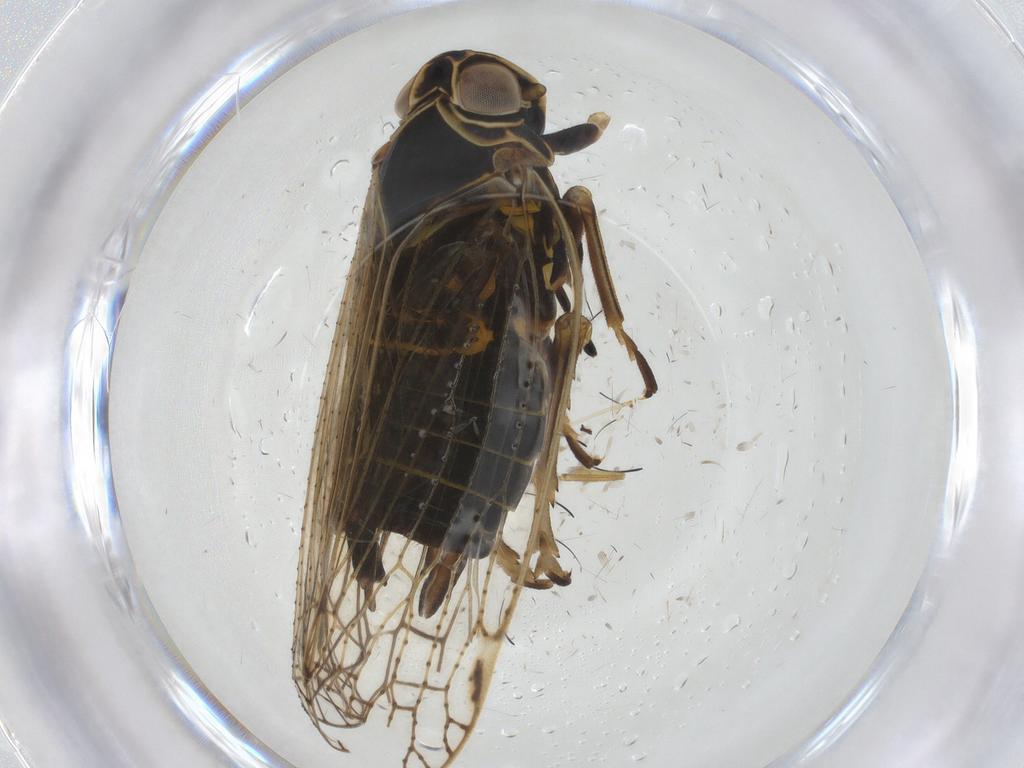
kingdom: Animalia
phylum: Arthropoda
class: Insecta
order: Hemiptera
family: Cixiidae
